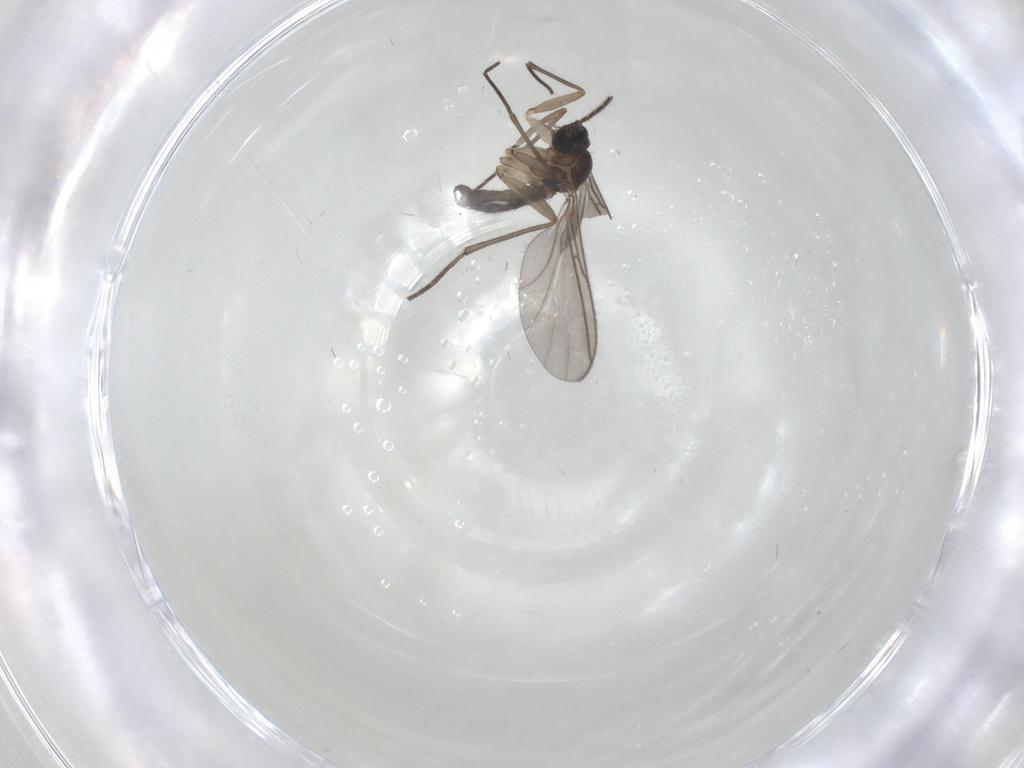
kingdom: Animalia
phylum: Arthropoda
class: Insecta
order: Diptera
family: Sciaridae
